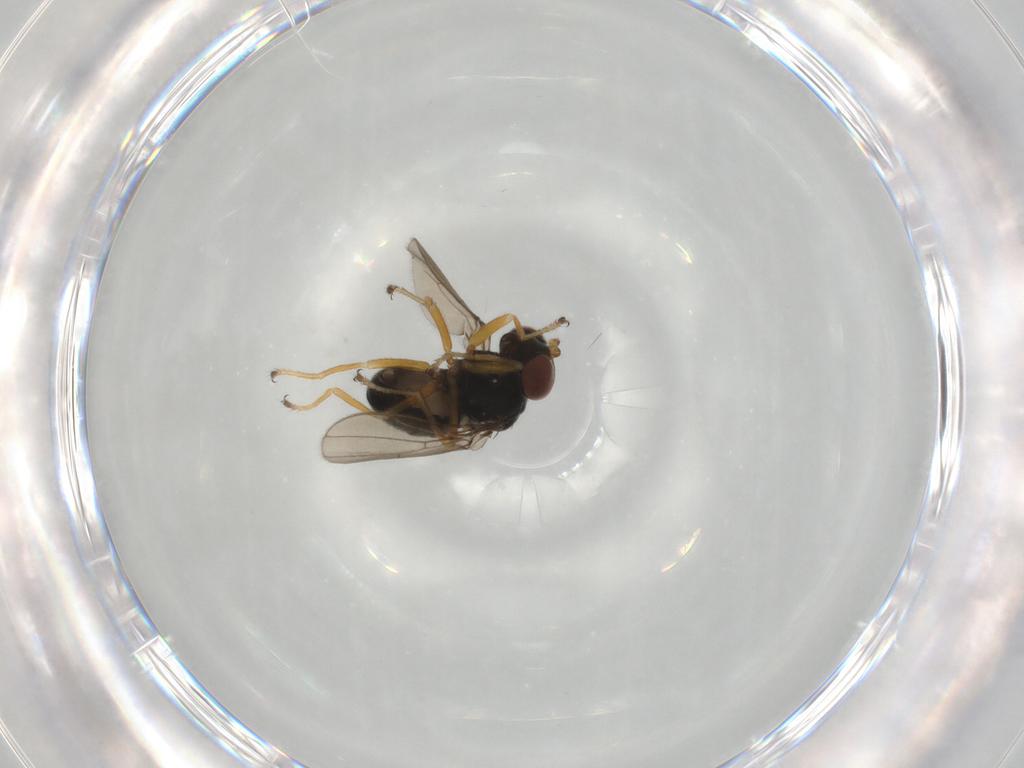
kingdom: Animalia
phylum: Arthropoda
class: Insecta
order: Diptera
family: Ephydridae
